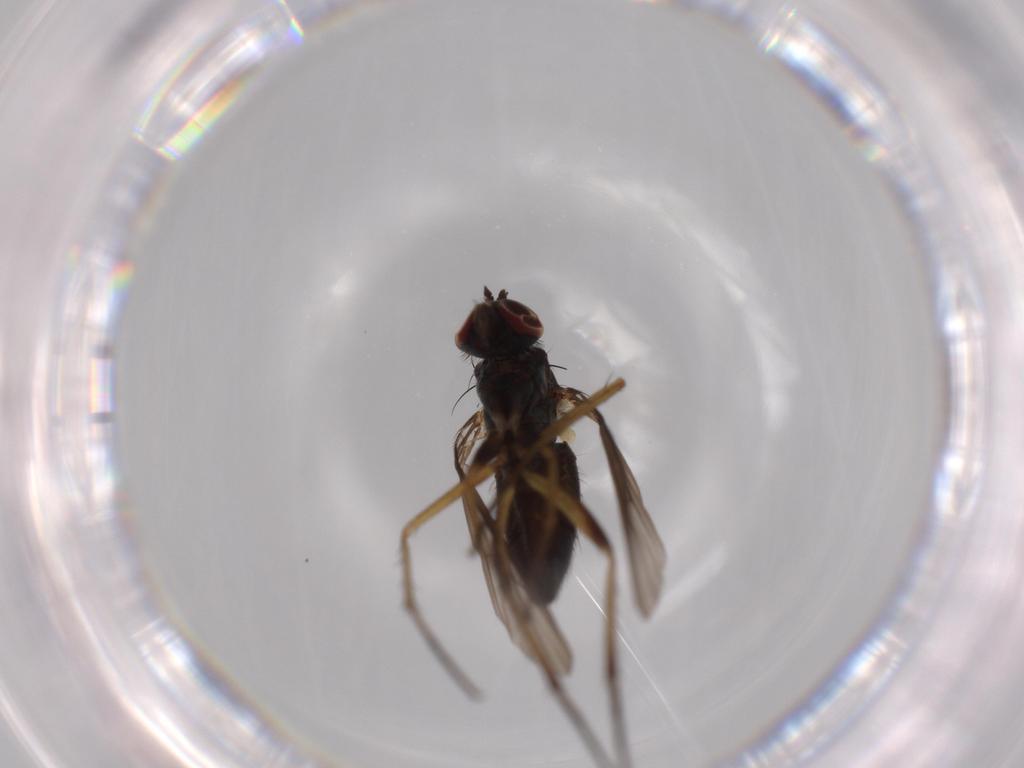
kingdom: Animalia
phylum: Arthropoda
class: Insecta
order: Diptera
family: Dolichopodidae
